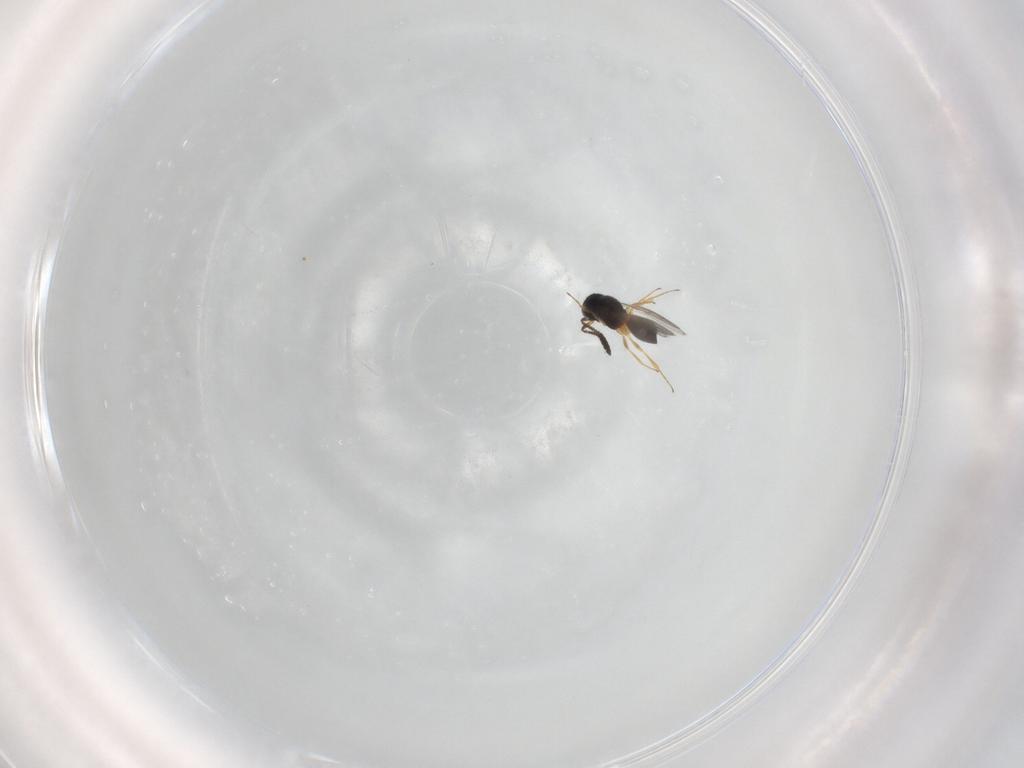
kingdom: Animalia
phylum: Arthropoda
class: Insecta
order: Hymenoptera
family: Scelionidae
